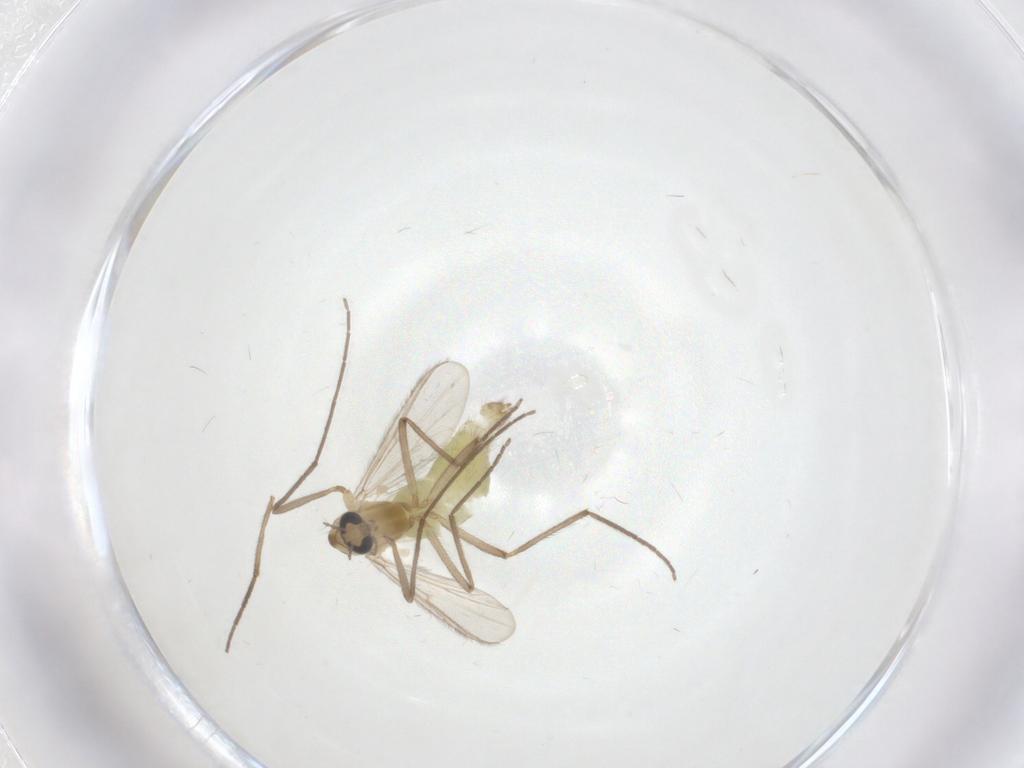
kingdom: Animalia
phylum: Arthropoda
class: Insecta
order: Diptera
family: Chironomidae
